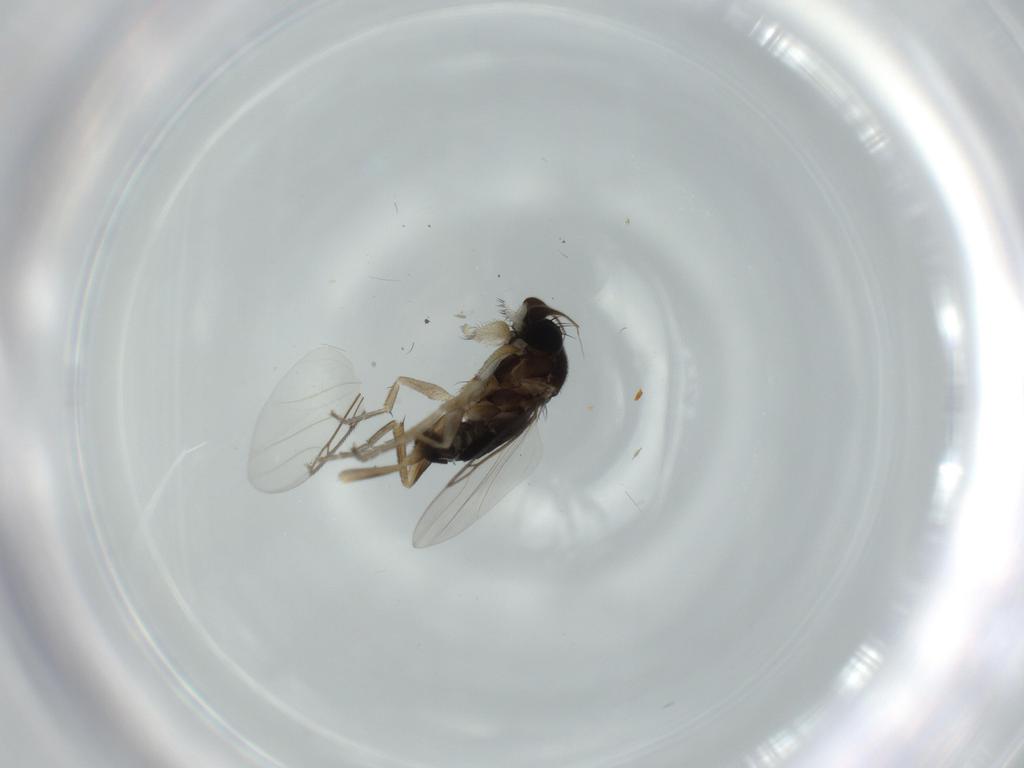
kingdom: Animalia
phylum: Arthropoda
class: Insecta
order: Diptera
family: Phoridae
